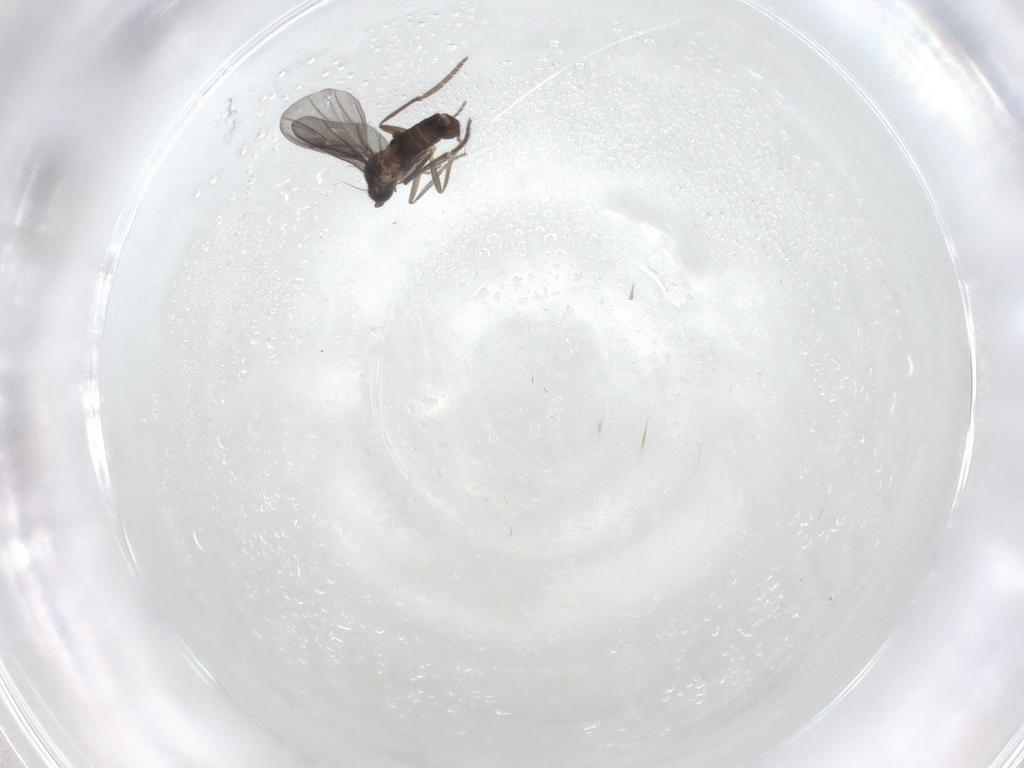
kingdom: Animalia
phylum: Arthropoda
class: Insecta
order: Diptera
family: Phoridae
